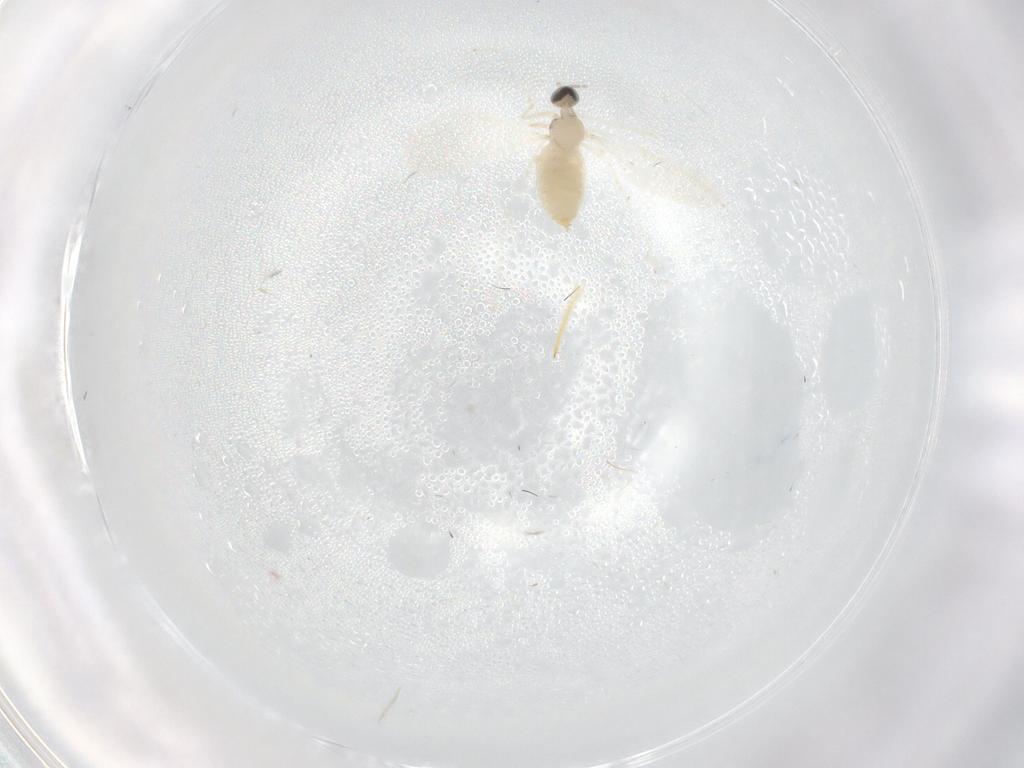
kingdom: Animalia
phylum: Arthropoda
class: Insecta
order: Diptera
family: Cecidomyiidae
